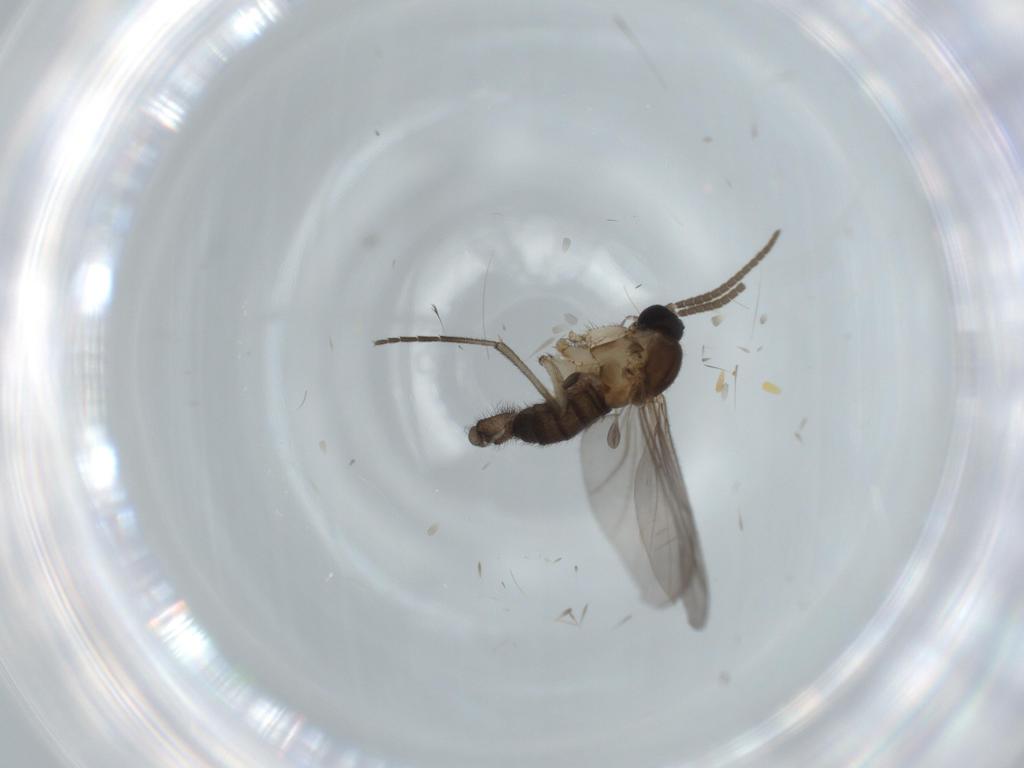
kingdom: Animalia
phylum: Arthropoda
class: Insecta
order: Diptera
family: Sciaridae
